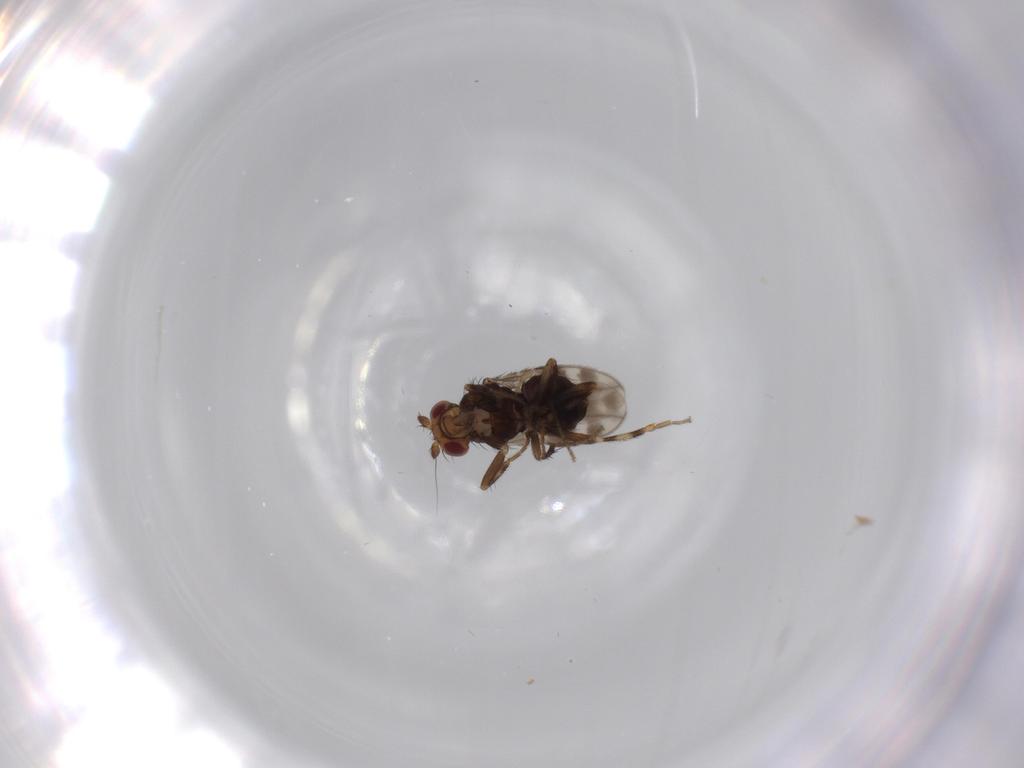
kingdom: Animalia
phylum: Arthropoda
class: Insecta
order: Diptera
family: Sphaeroceridae
